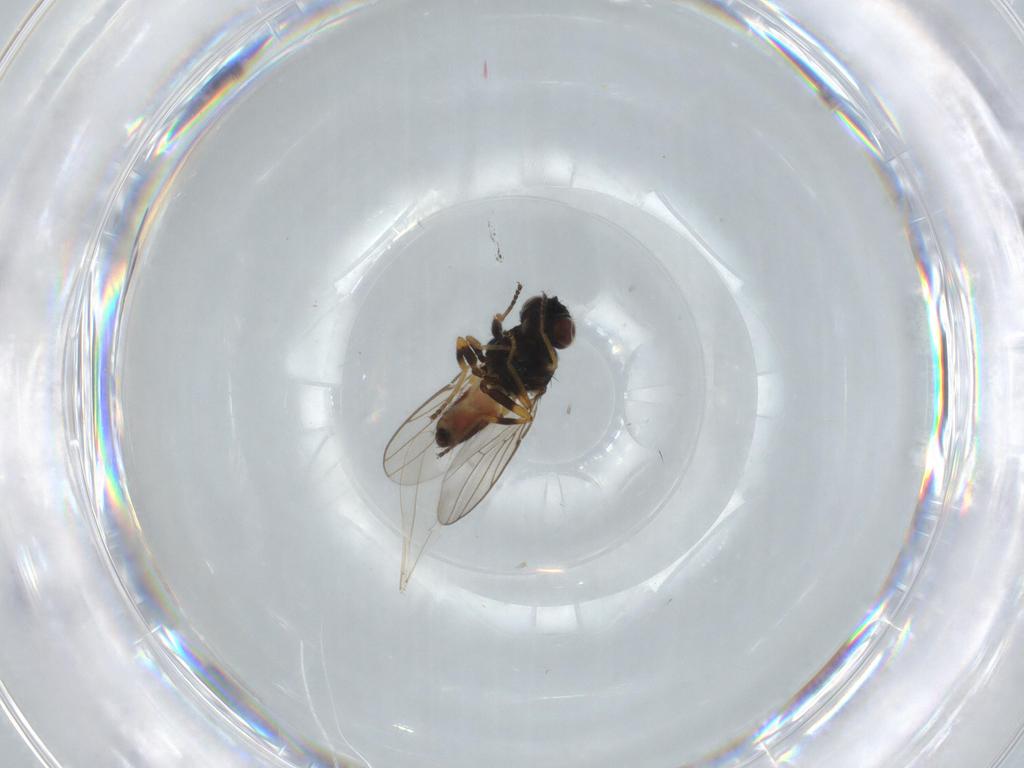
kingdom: Animalia
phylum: Arthropoda
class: Insecta
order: Diptera
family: Chloropidae
